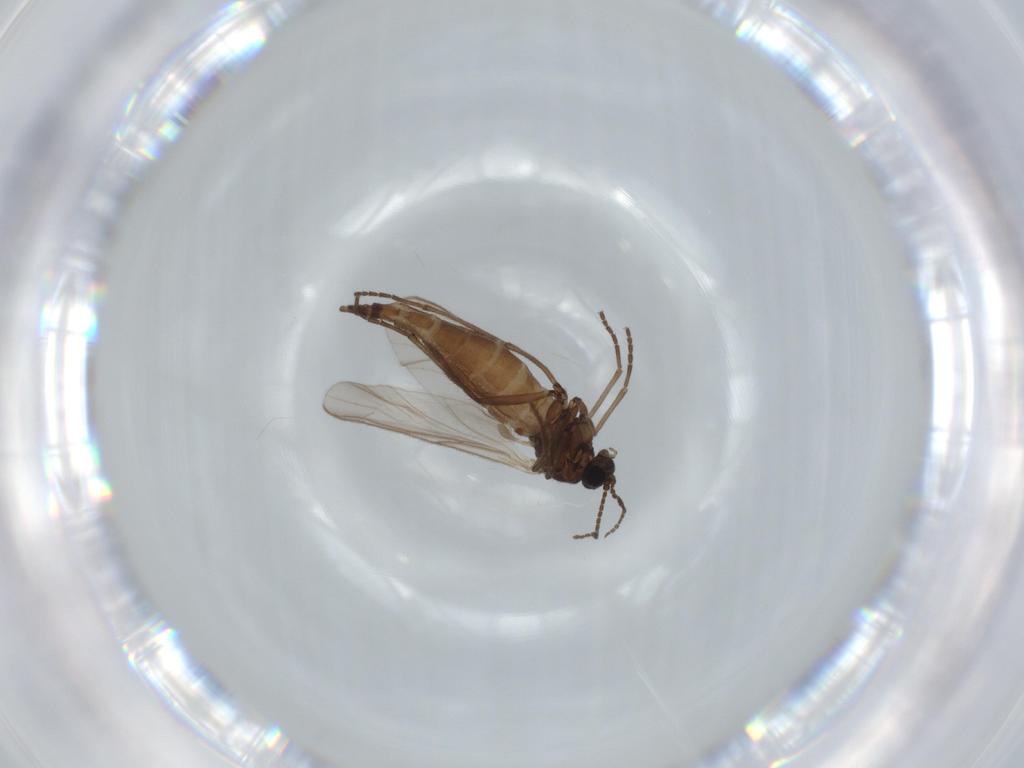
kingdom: Animalia
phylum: Arthropoda
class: Insecta
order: Diptera
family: Sciaridae
